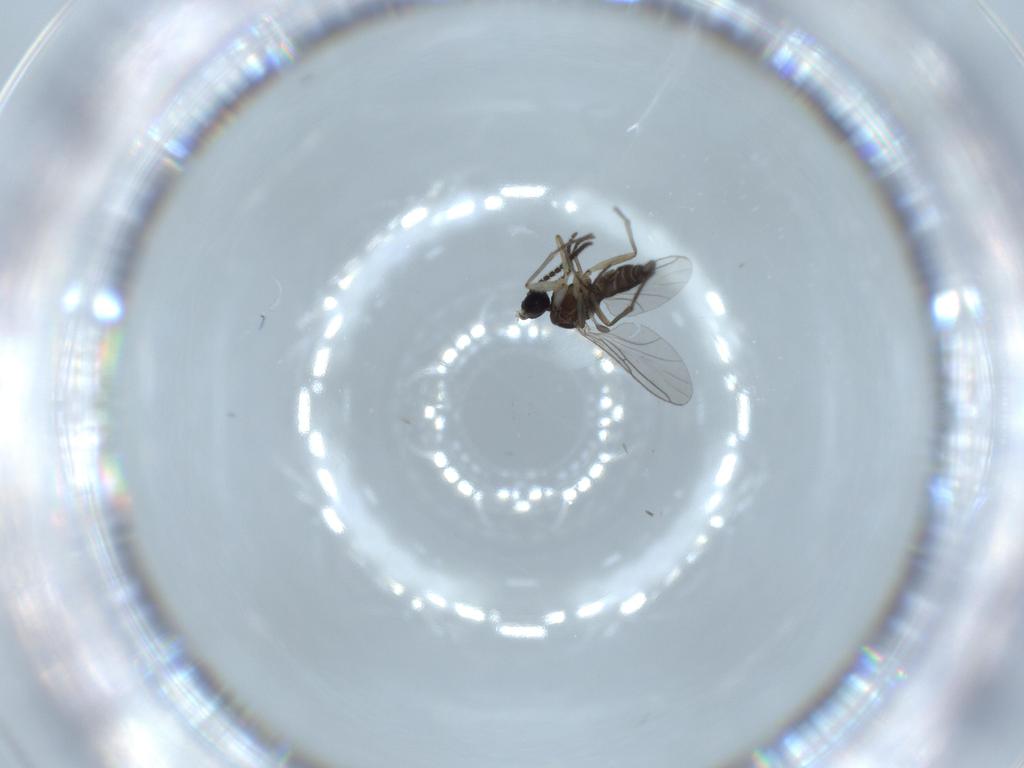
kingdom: Animalia
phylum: Arthropoda
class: Insecta
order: Diptera
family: Sciaridae
